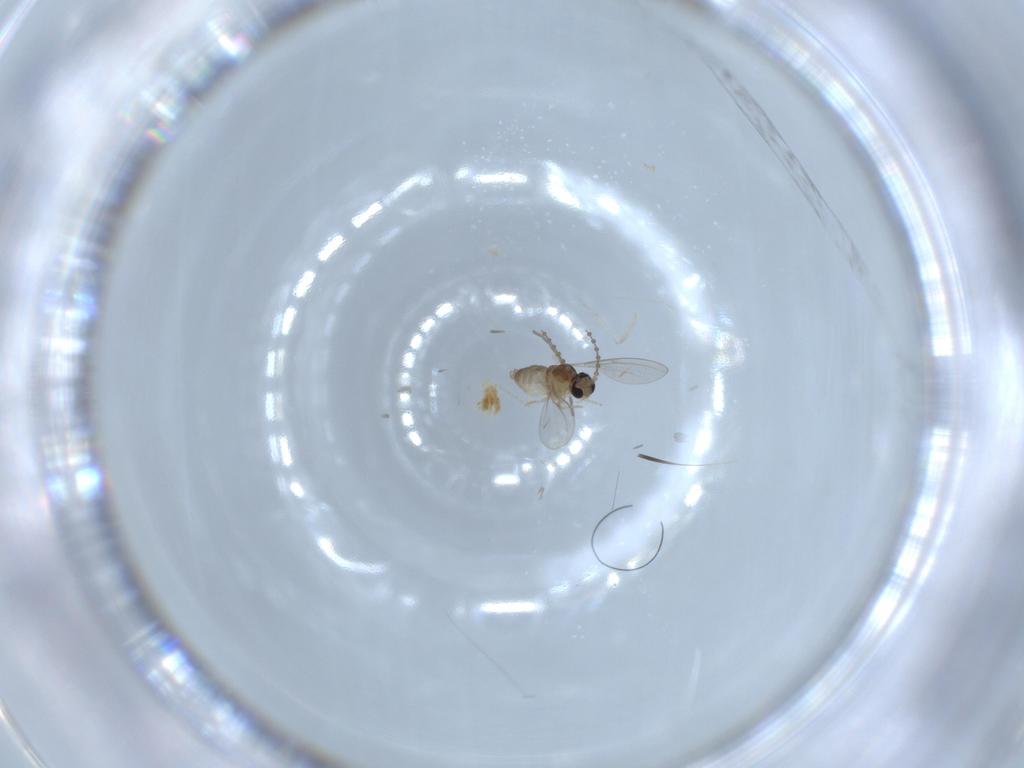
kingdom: Animalia
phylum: Arthropoda
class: Insecta
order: Diptera
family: Cecidomyiidae
